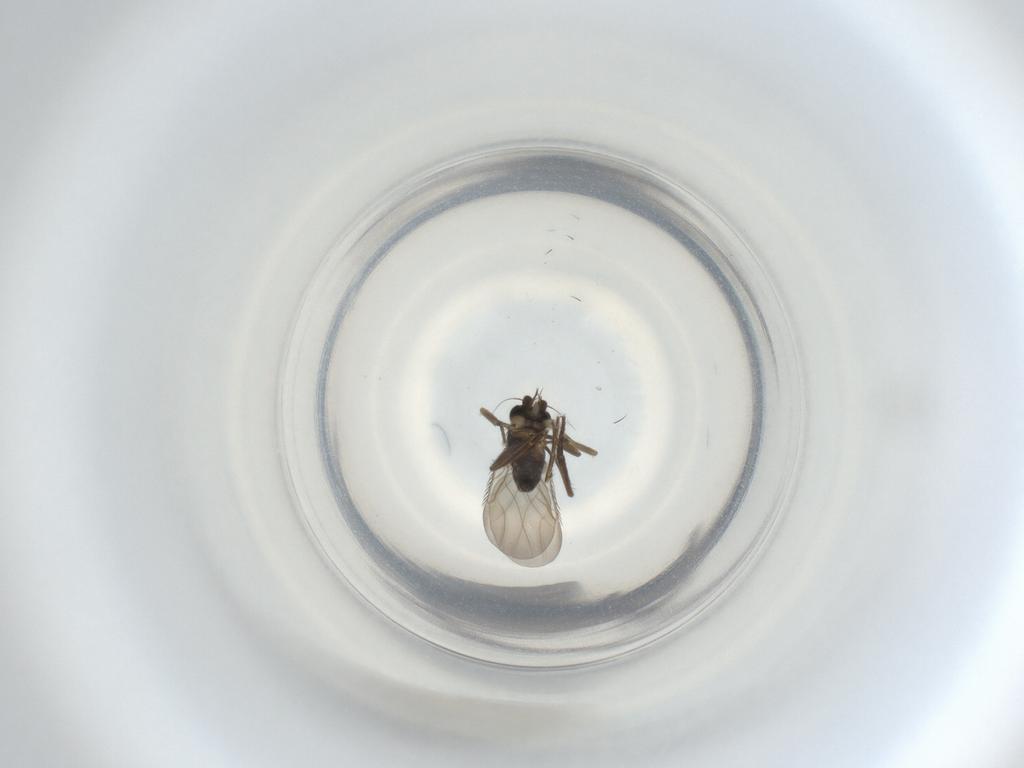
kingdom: Animalia
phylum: Arthropoda
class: Insecta
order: Diptera
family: Phoridae
